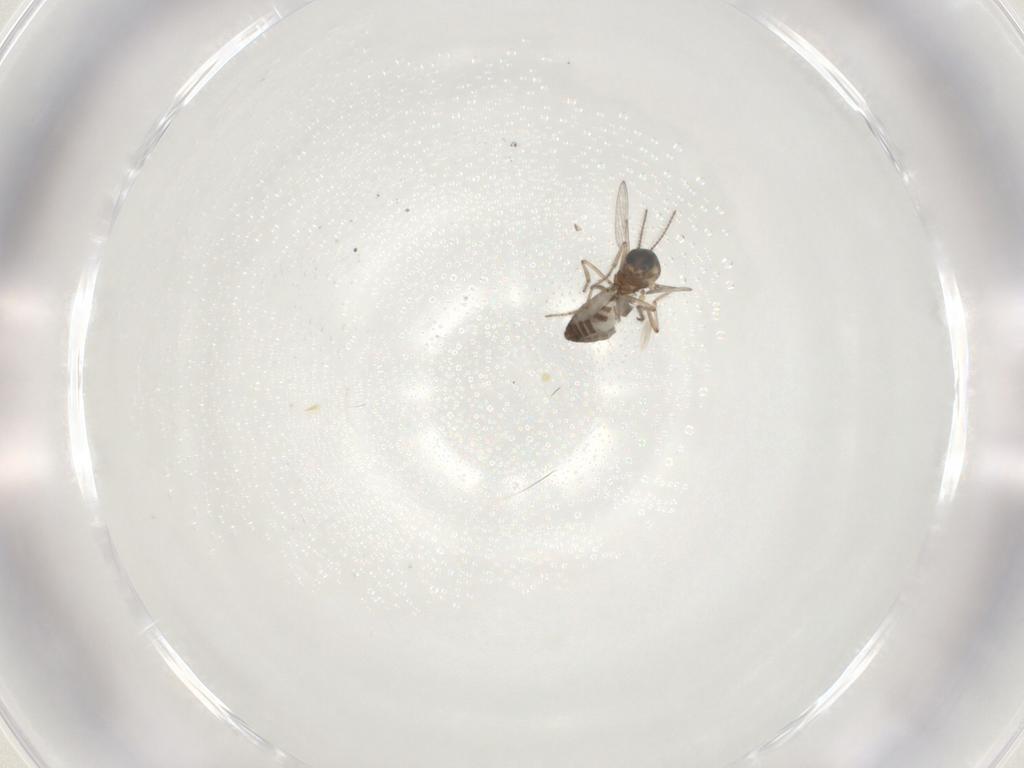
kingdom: Animalia
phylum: Arthropoda
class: Insecta
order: Diptera
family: Ceratopogonidae
